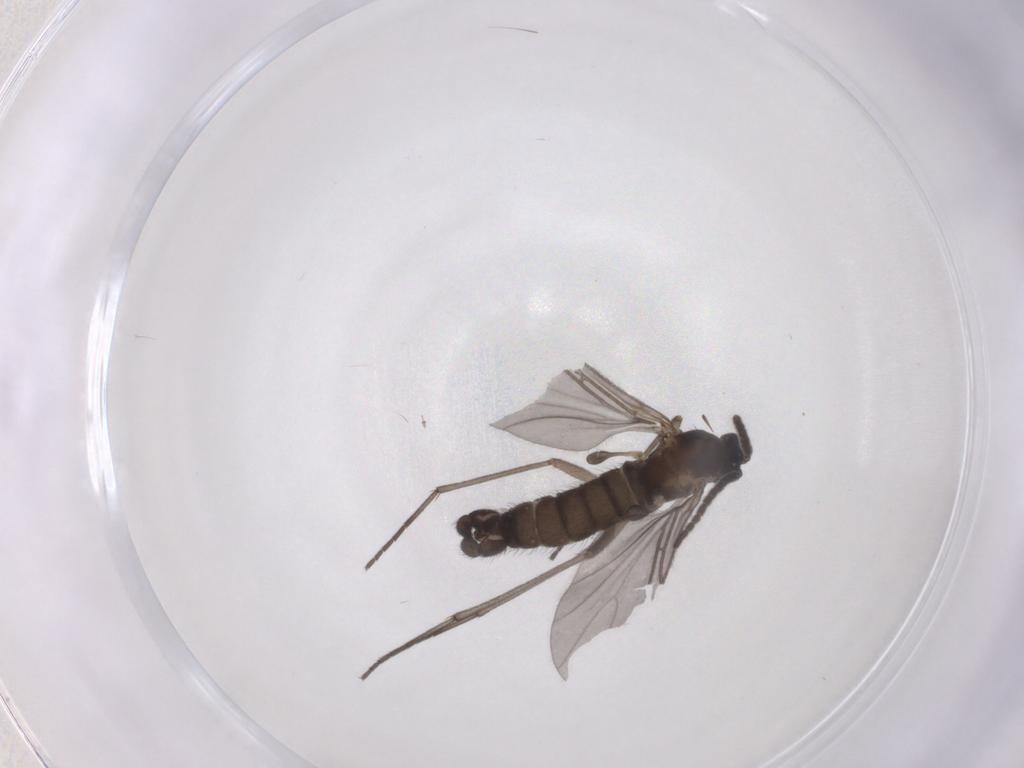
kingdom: Animalia
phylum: Arthropoda
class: Insecta
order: Diptera
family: Sciaridae
